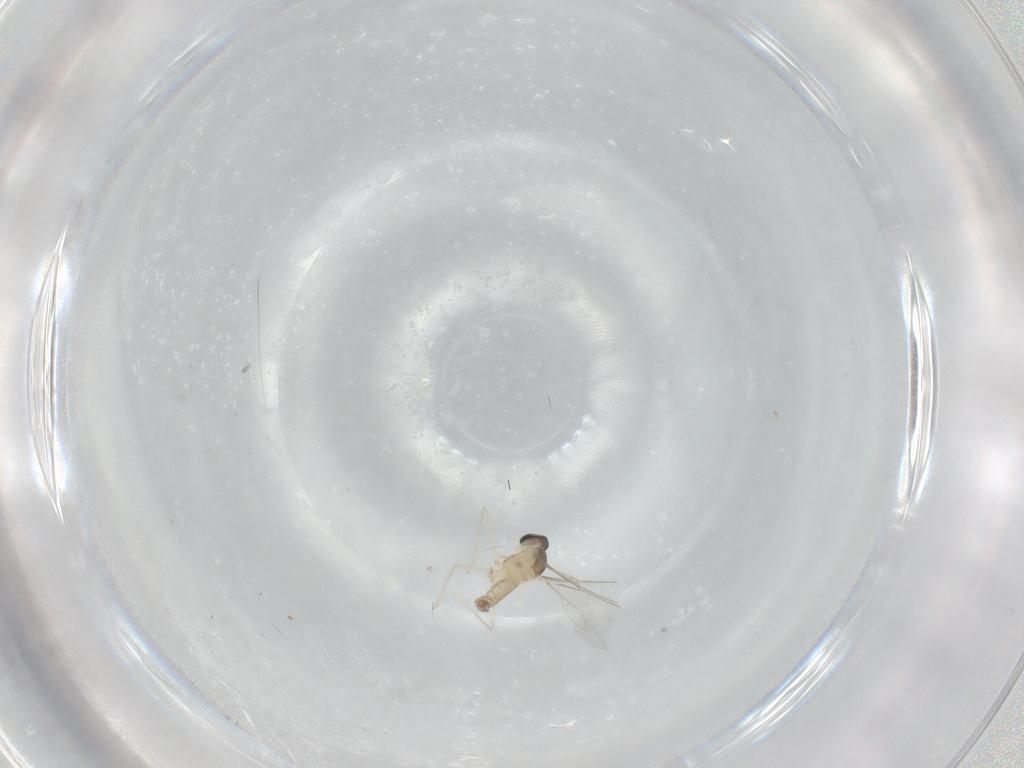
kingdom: Animalia
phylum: Arthropoda
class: Insecta
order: Diptera
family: Cecidomyiidae
